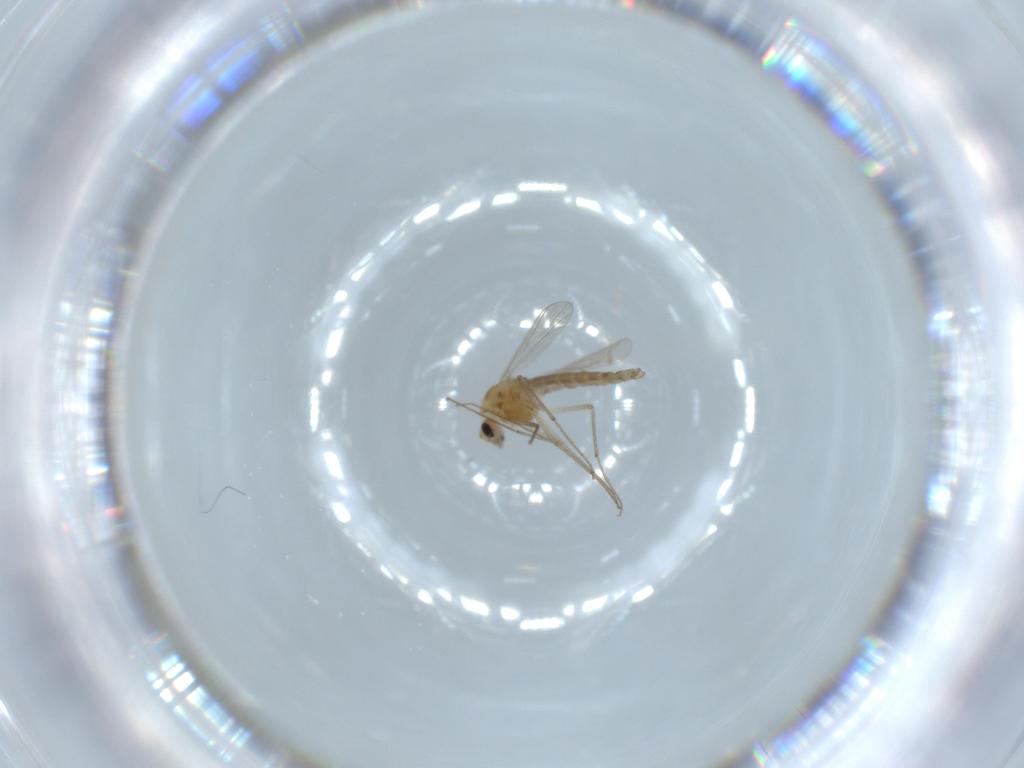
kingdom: Animalia
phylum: Arthropoda
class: Insecta
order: Diptera
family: Chironomidae
